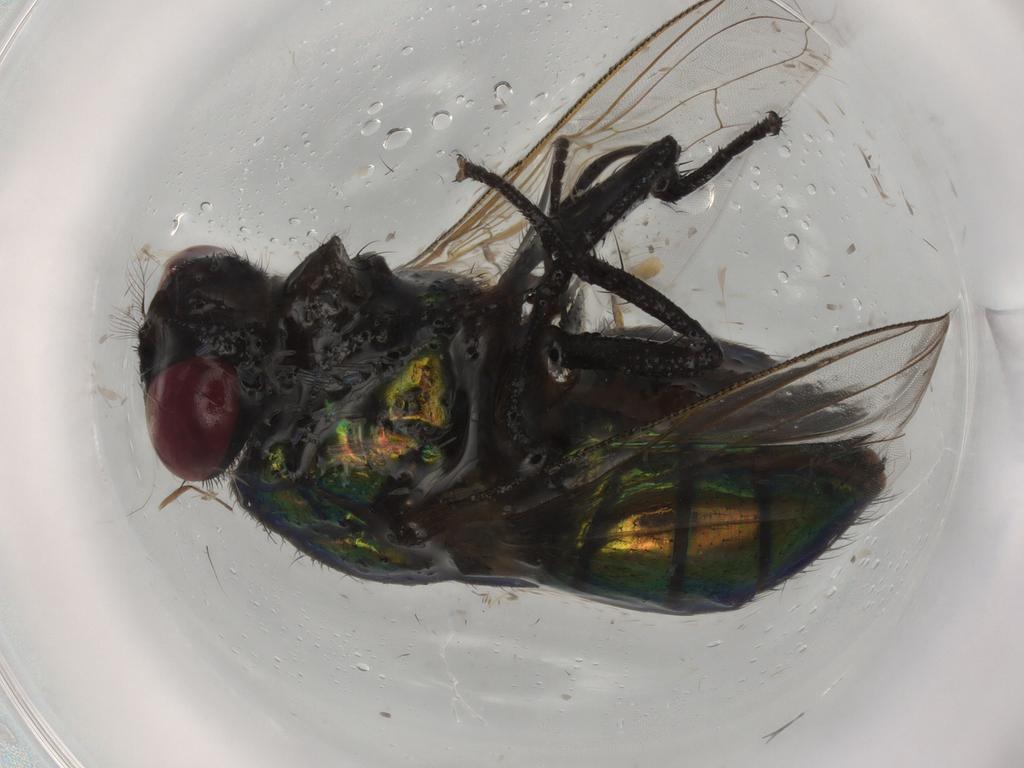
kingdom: Animalia
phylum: Arthropoda
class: Insecta
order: Diptera
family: Muscidae
